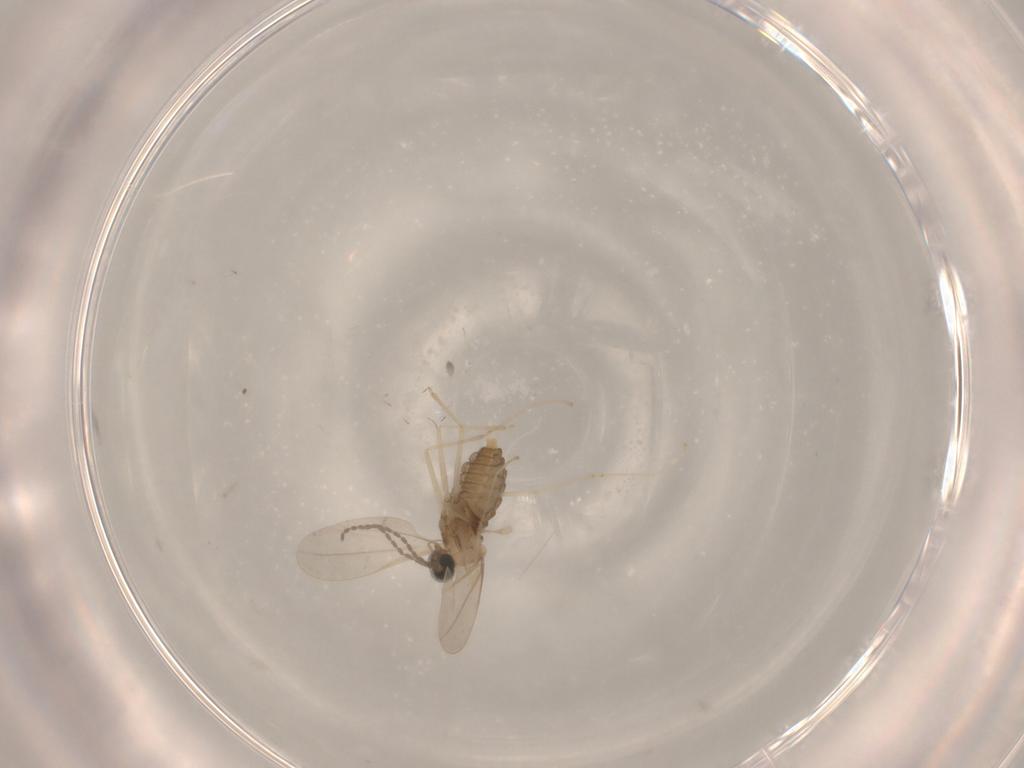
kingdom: Animalia
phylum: Arthropoda
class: Insecta
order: Diptera
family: Cecidomyiidae
